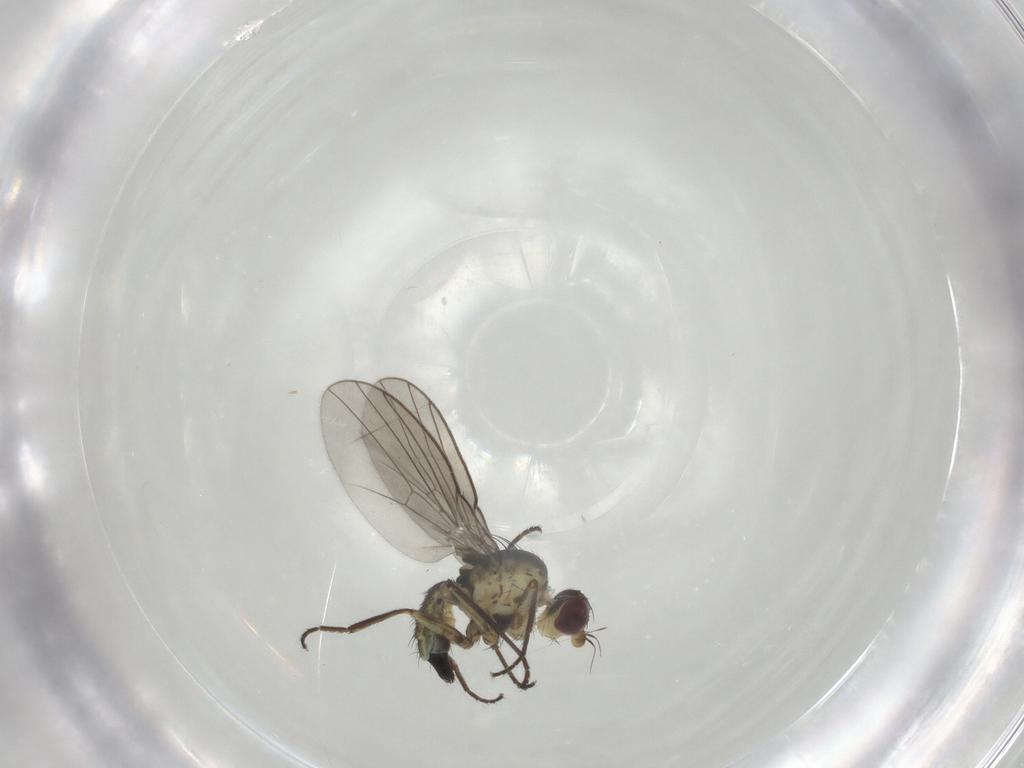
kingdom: Animalia
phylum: Arthropoda
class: Insecta
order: Diptera
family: Agromyzidae
